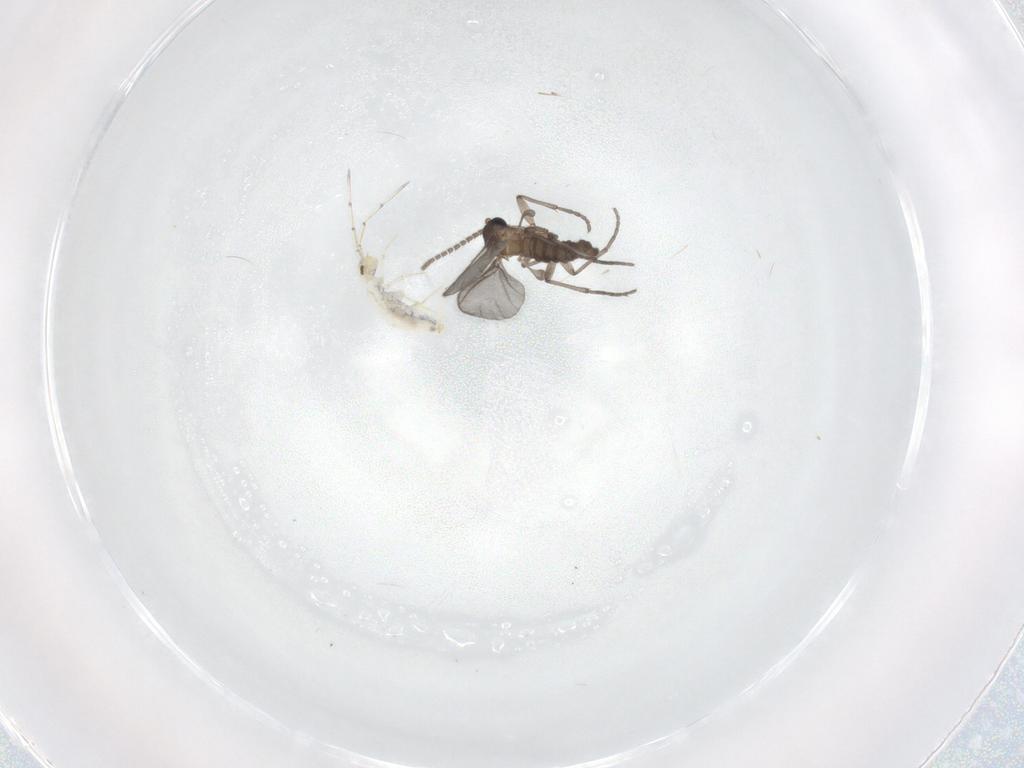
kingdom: Animalia
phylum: Arthropoda
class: Insecta
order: Diptera
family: Sciaridae
